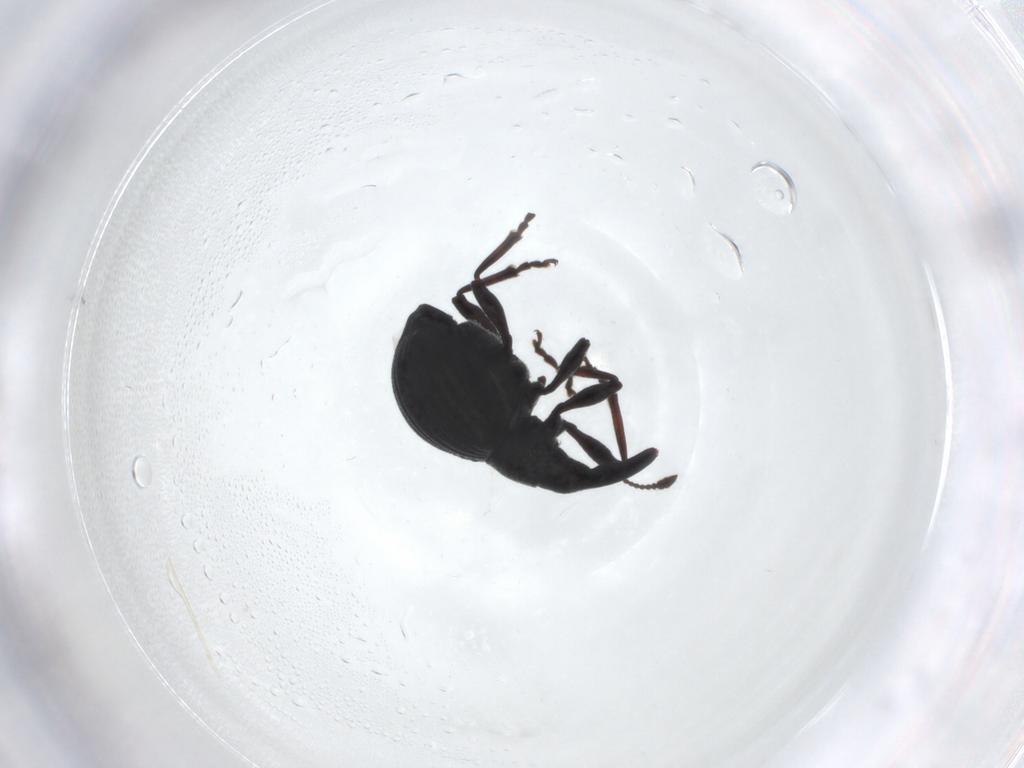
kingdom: Animalia
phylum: Arthropoda
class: Insecta
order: Coleoptera
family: Brentidae
